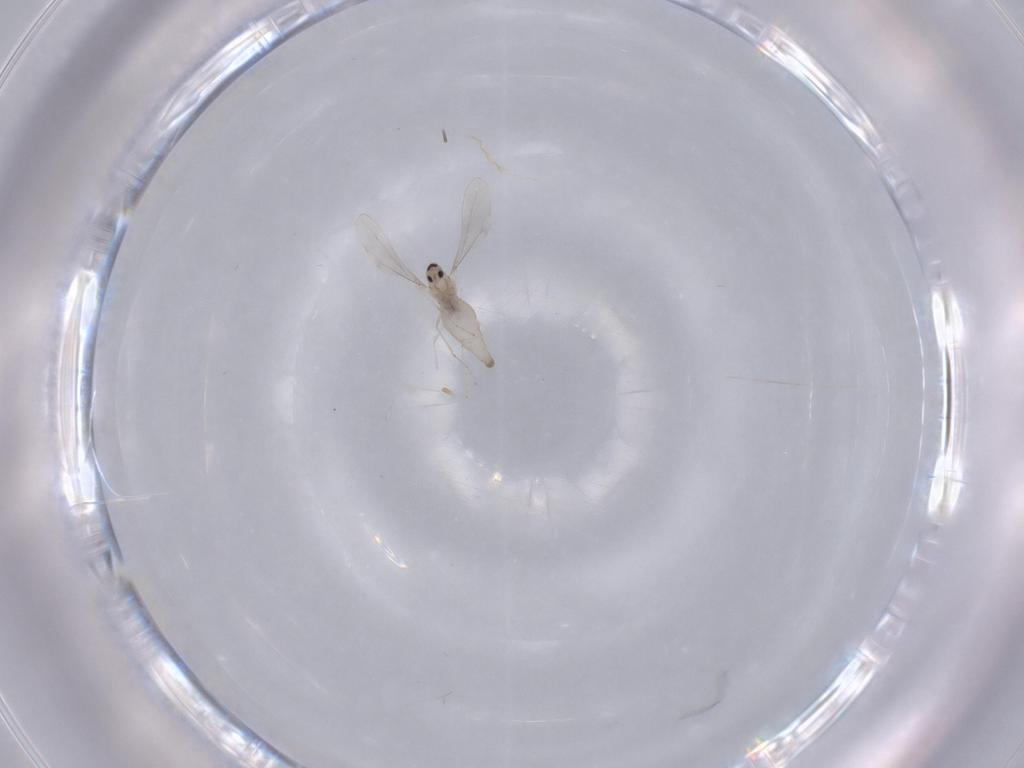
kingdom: Animalia
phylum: Arthropoda
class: Insecta
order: Diptera
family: Cecidomyiidae
